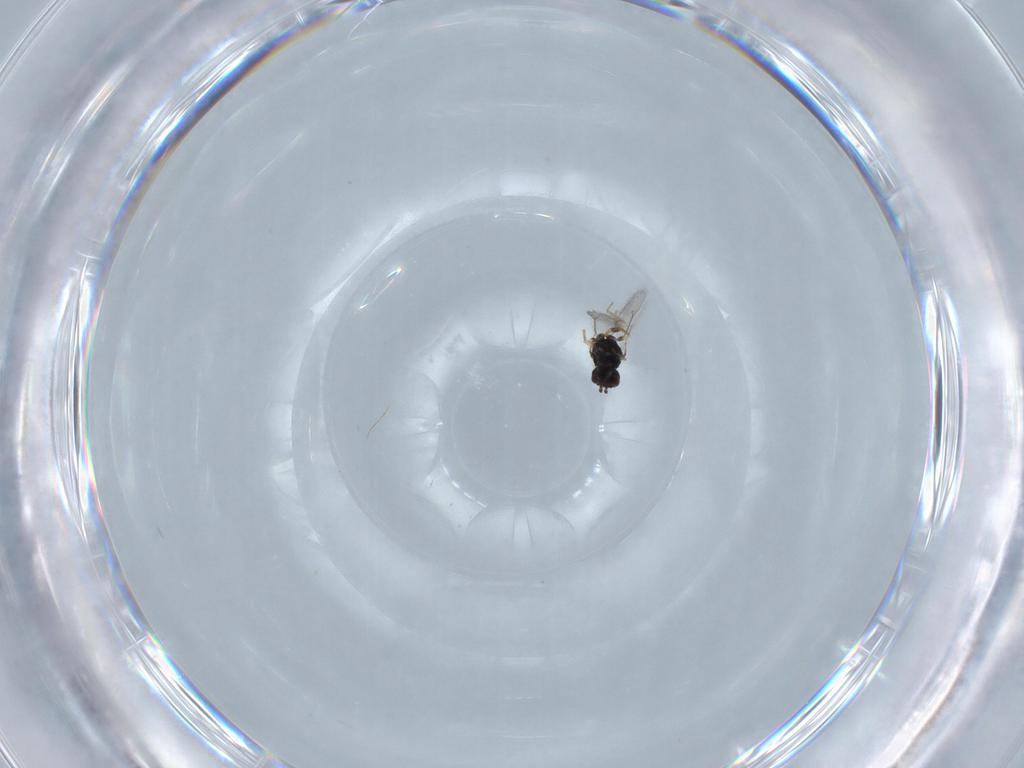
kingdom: Animalia
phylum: Arthropoda
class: Insecta
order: Hymenoptera
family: Eulophidae
